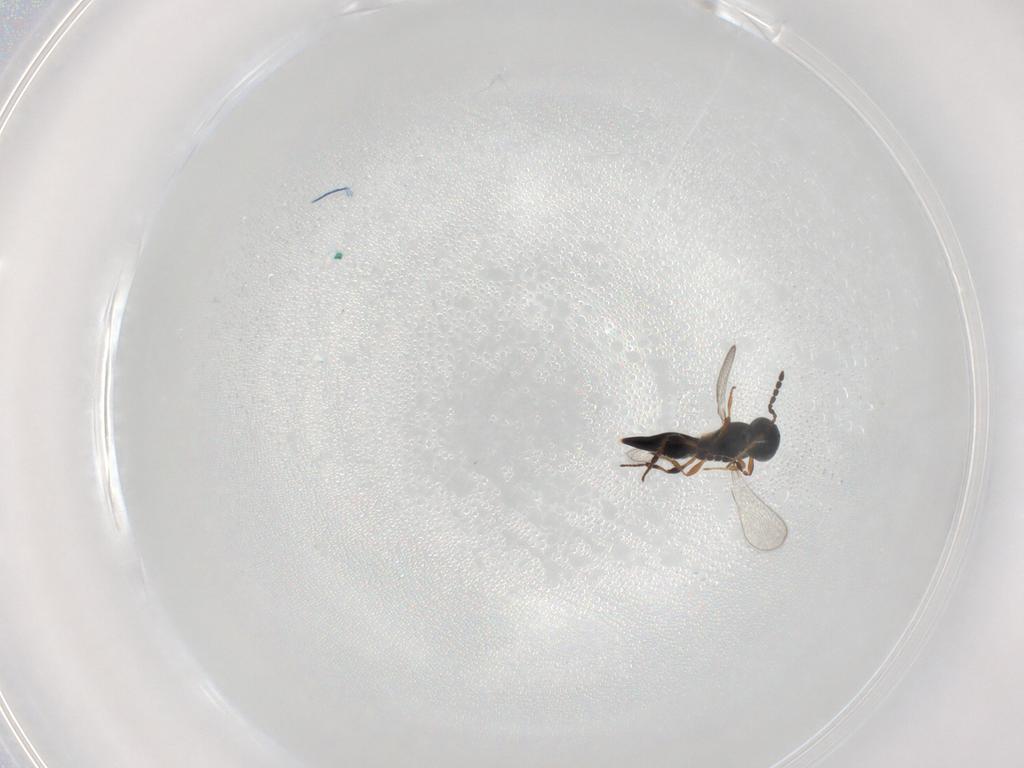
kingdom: Animalia
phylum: Arthropoda
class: Insecta
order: Hymenoptera
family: Platygastridae
